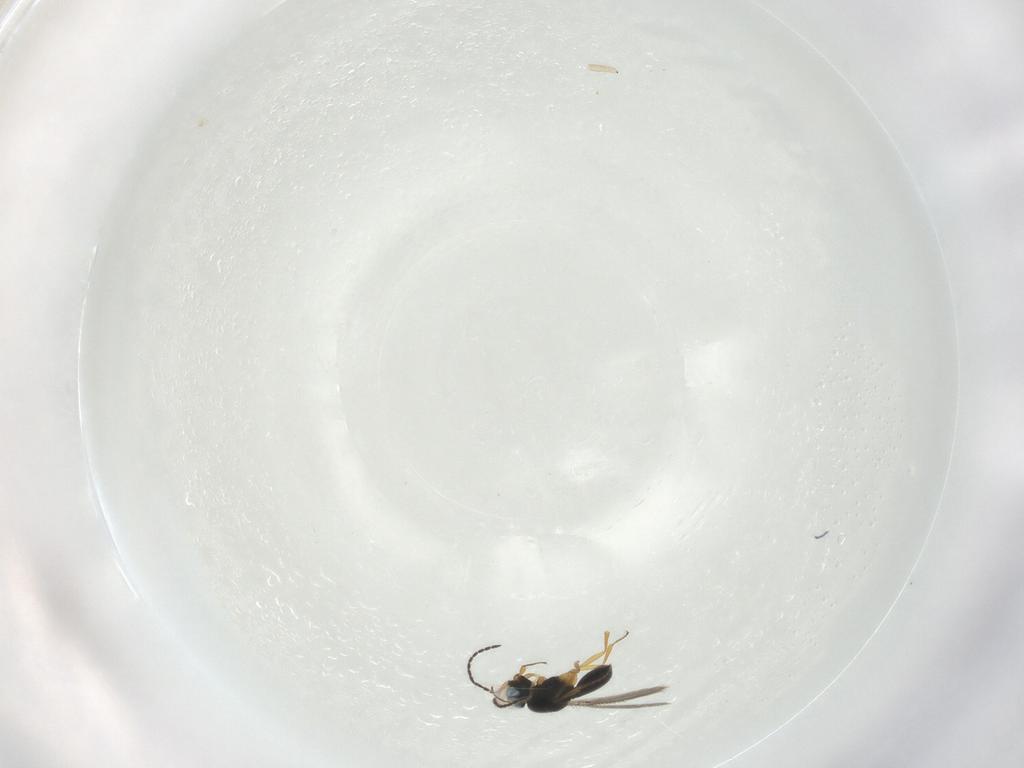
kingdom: Animalia
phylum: Arthropoda
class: Insecta
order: Hymenoptera
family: Scelionidae
